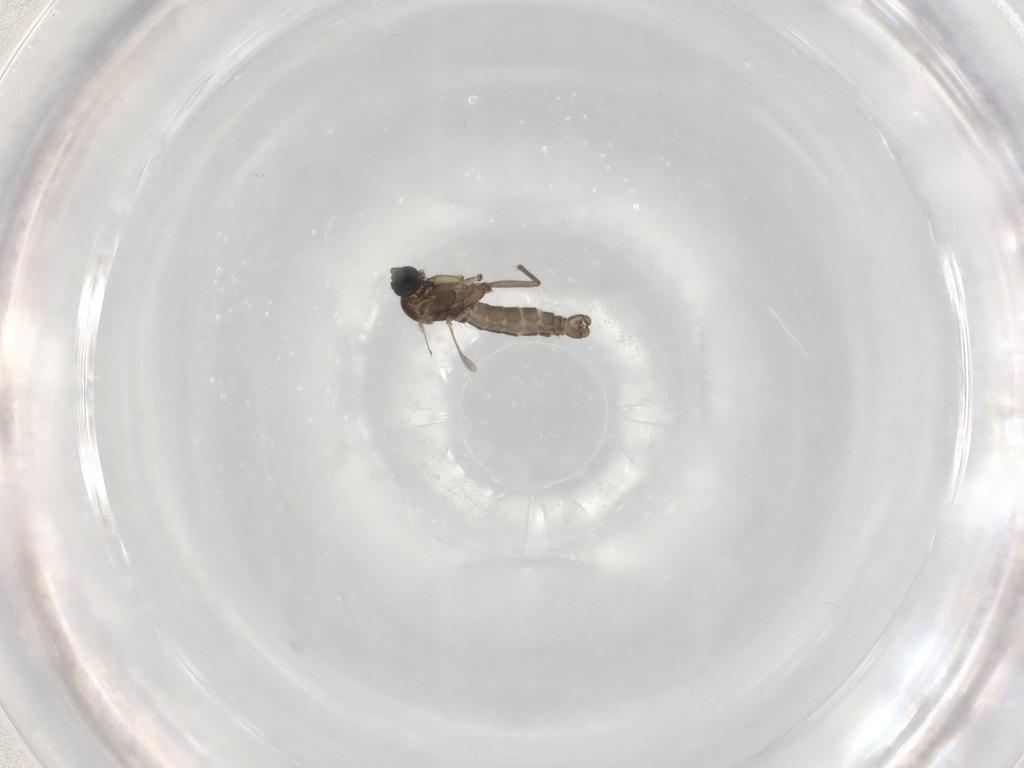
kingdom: Animalia
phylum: Arthropoda
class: Insecta
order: Diptera
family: Sciaridae
